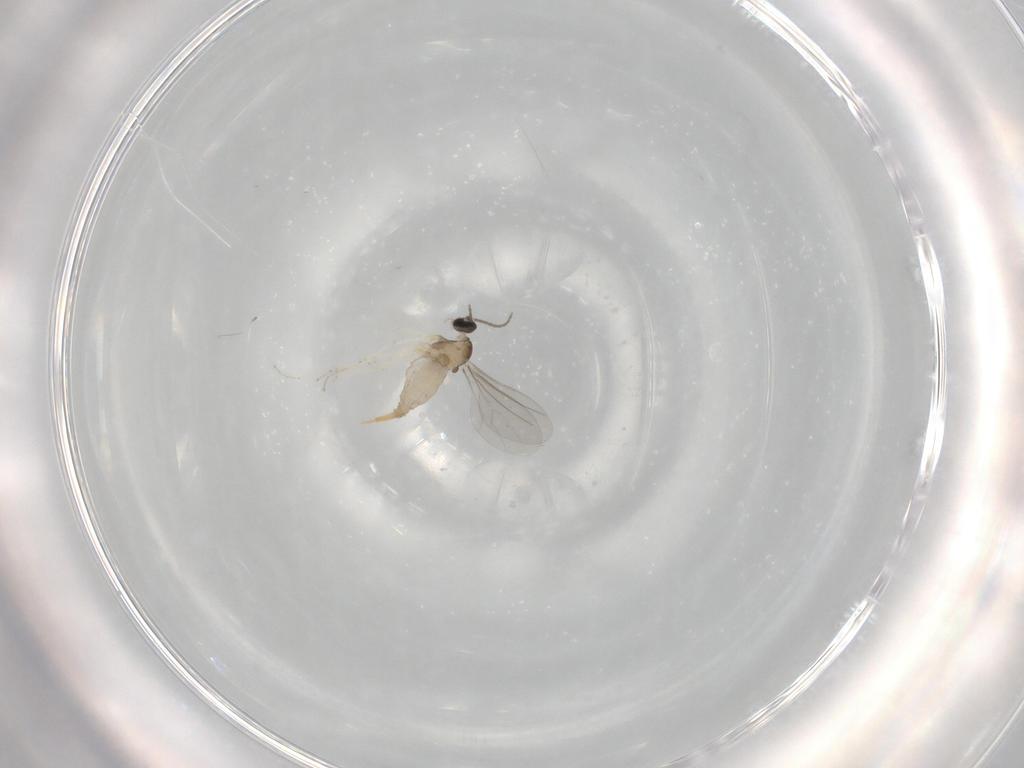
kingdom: Animalia
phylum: Arthropoda
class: Insecta
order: Diptera
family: Cecidomyiidae
